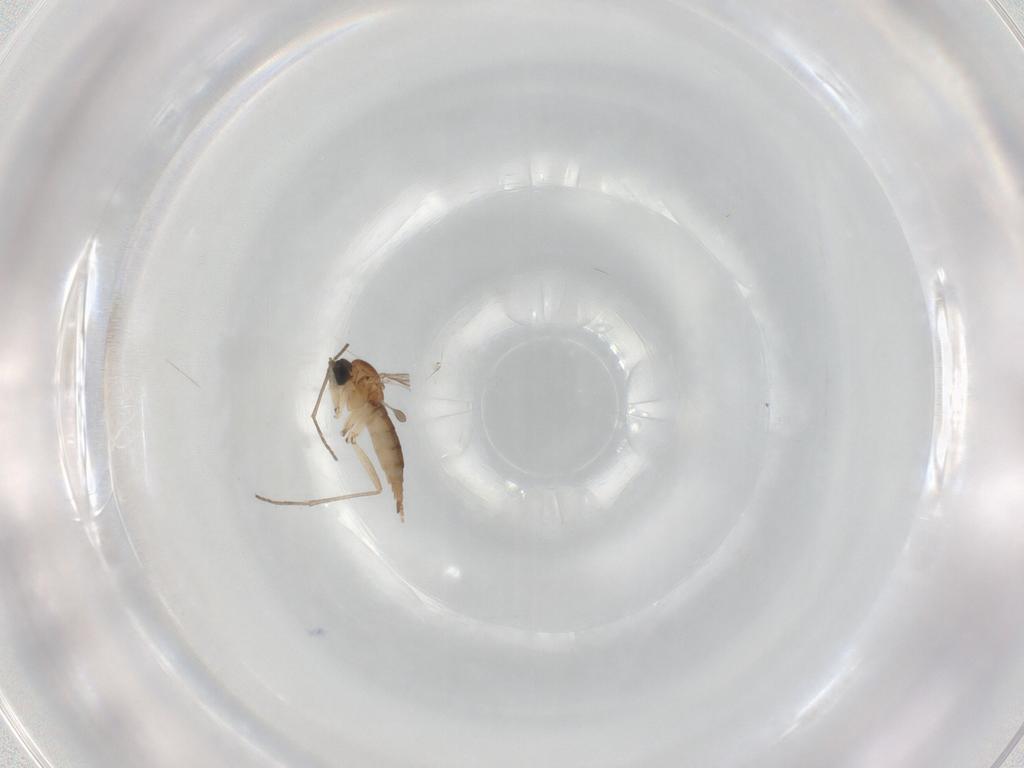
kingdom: Animalia
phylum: Arthropoda
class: Insecta
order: Diptera
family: Sciaridae
